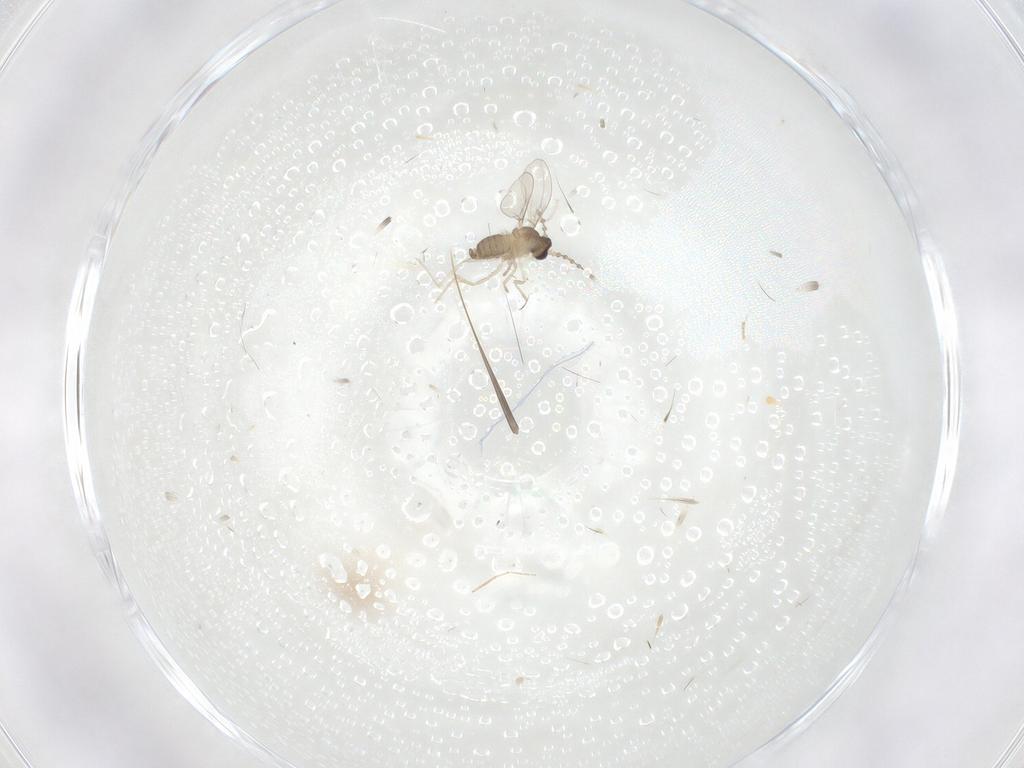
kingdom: Animalia
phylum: Arthropoda
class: Insecta
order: Diptera
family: Cecidomyiidae
